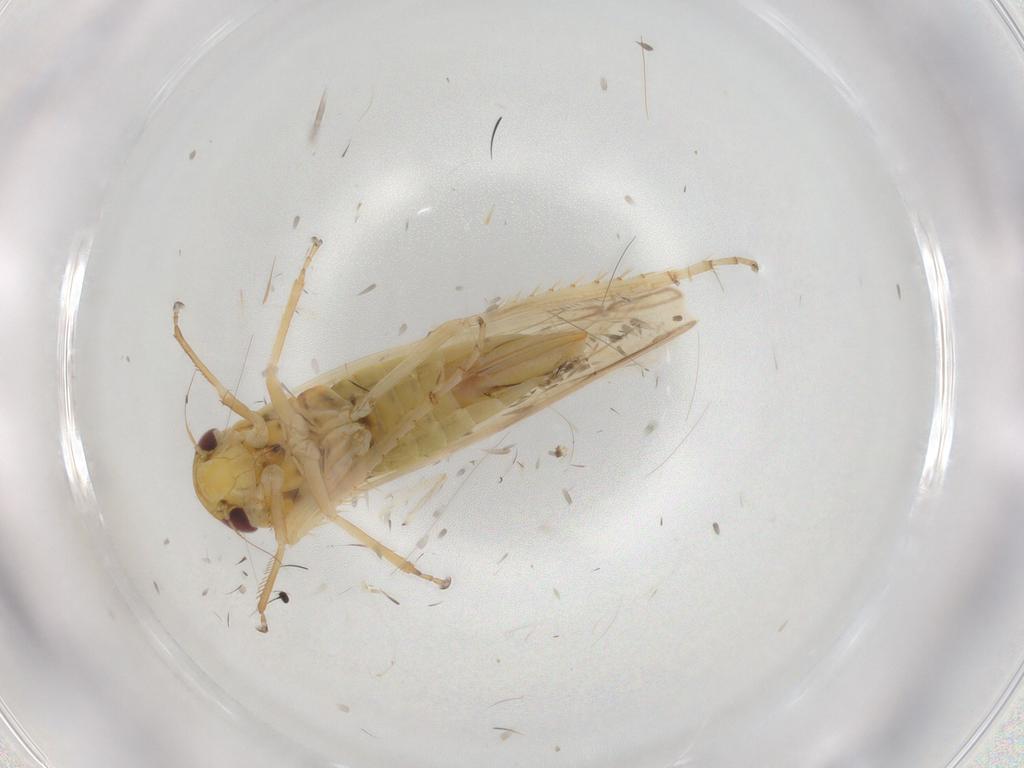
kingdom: Animalia
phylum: Arthropoda
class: Insecta
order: Hemiptera
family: Cicadellidae
